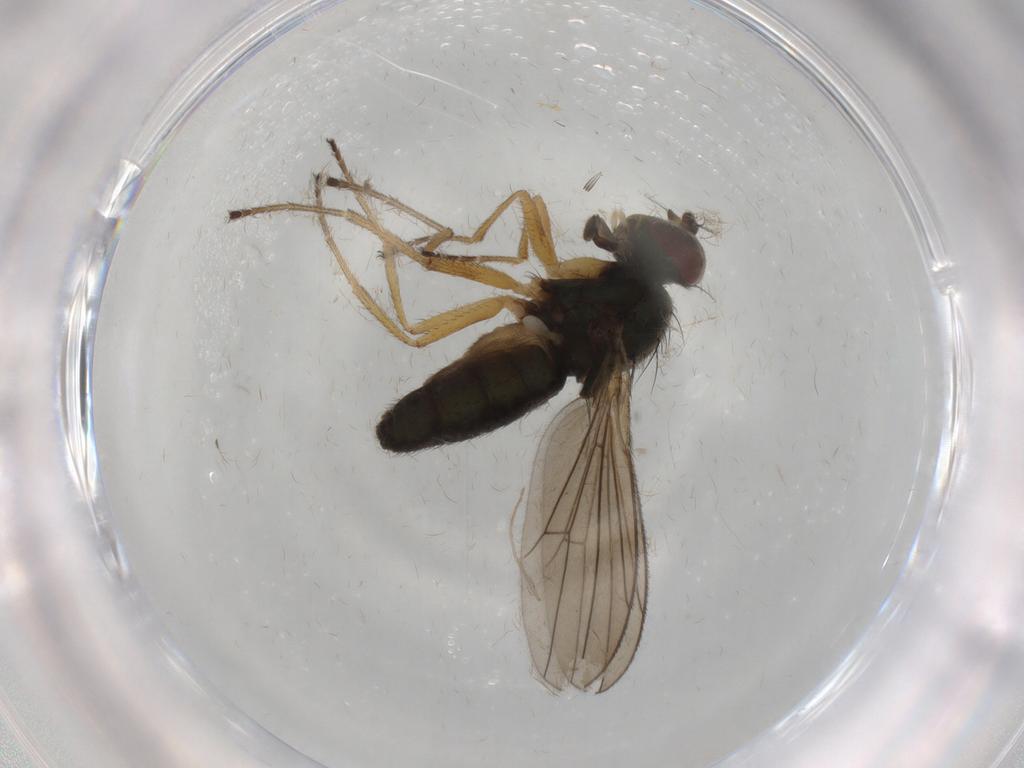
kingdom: Animalia
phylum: Arthropoda
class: Insecta
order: Diptera
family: Ephydridae
